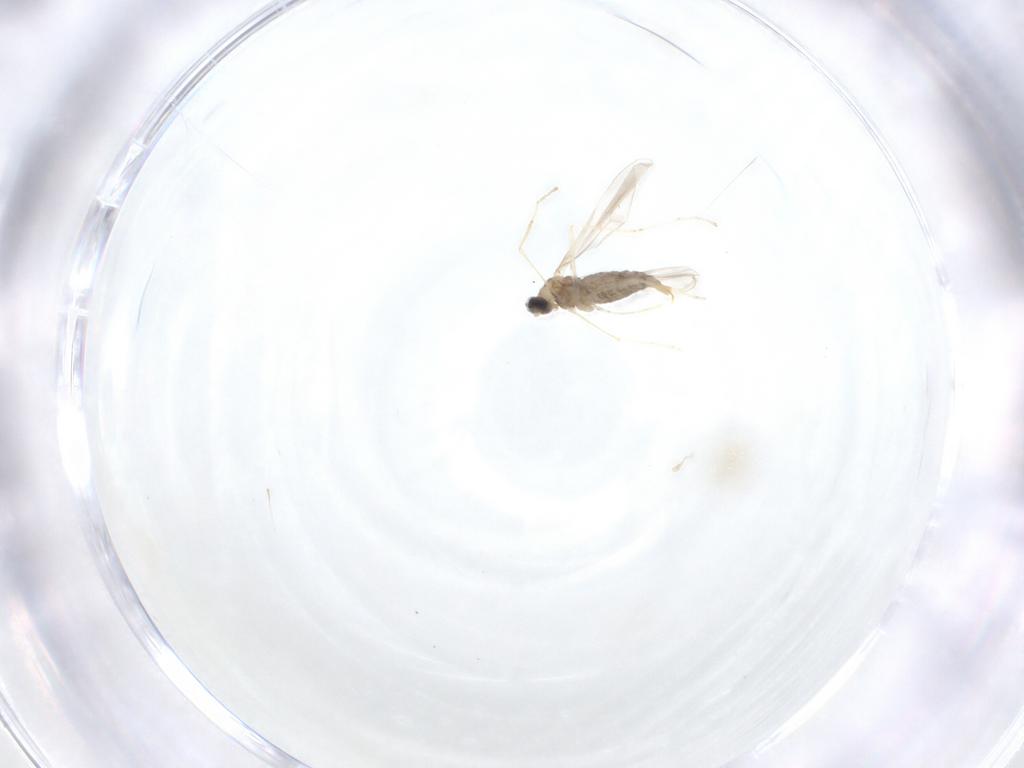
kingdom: Animalia
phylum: Arthropoda
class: Insecta
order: Diptera
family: Cecidomyiidae
